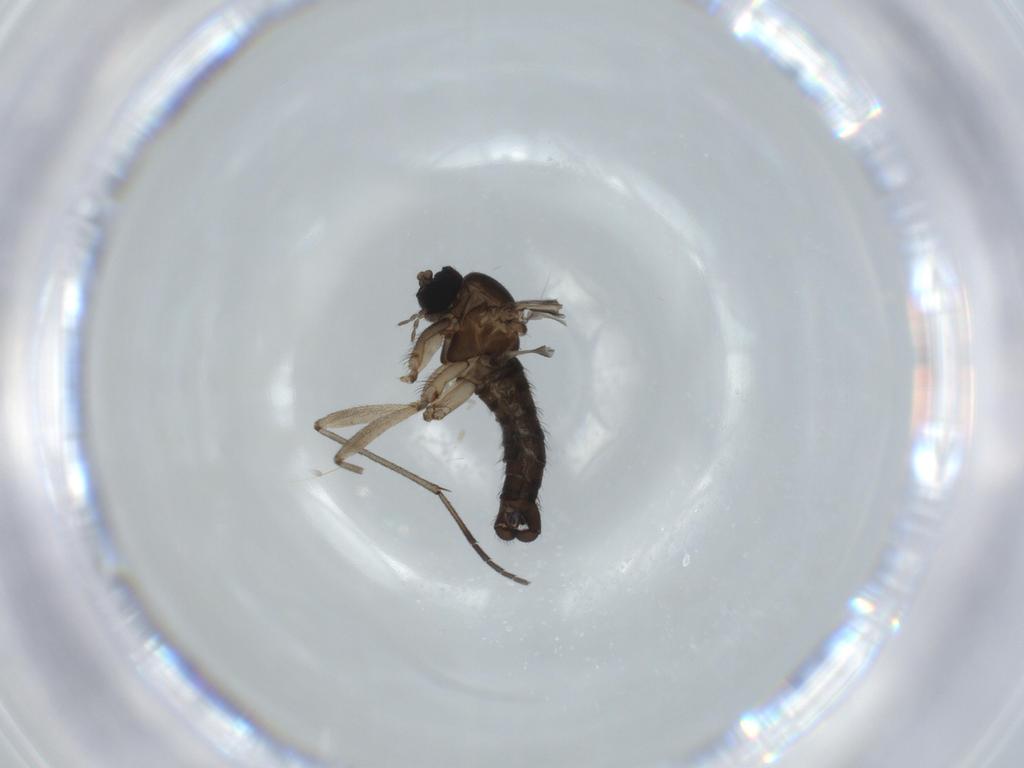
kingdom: Animalia
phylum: Arthropoda
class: Insecta
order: Diptera
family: Sciaridae
